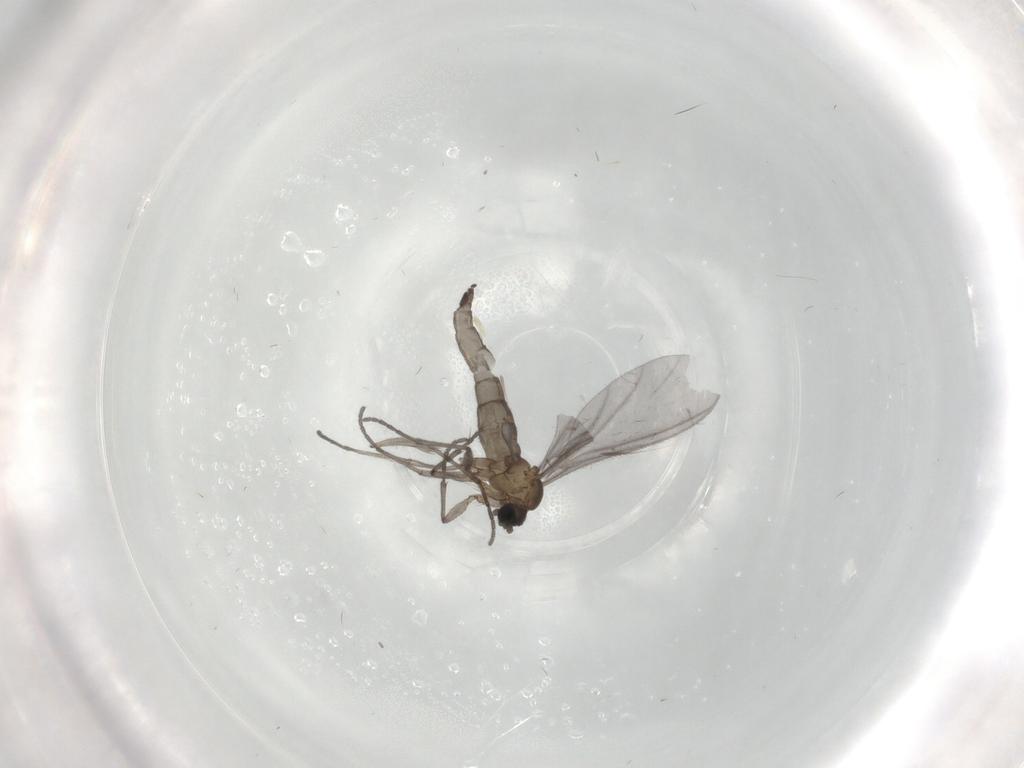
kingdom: Animalia
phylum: Arthropoda
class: Insecta
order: Diptera
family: Sciaridae
